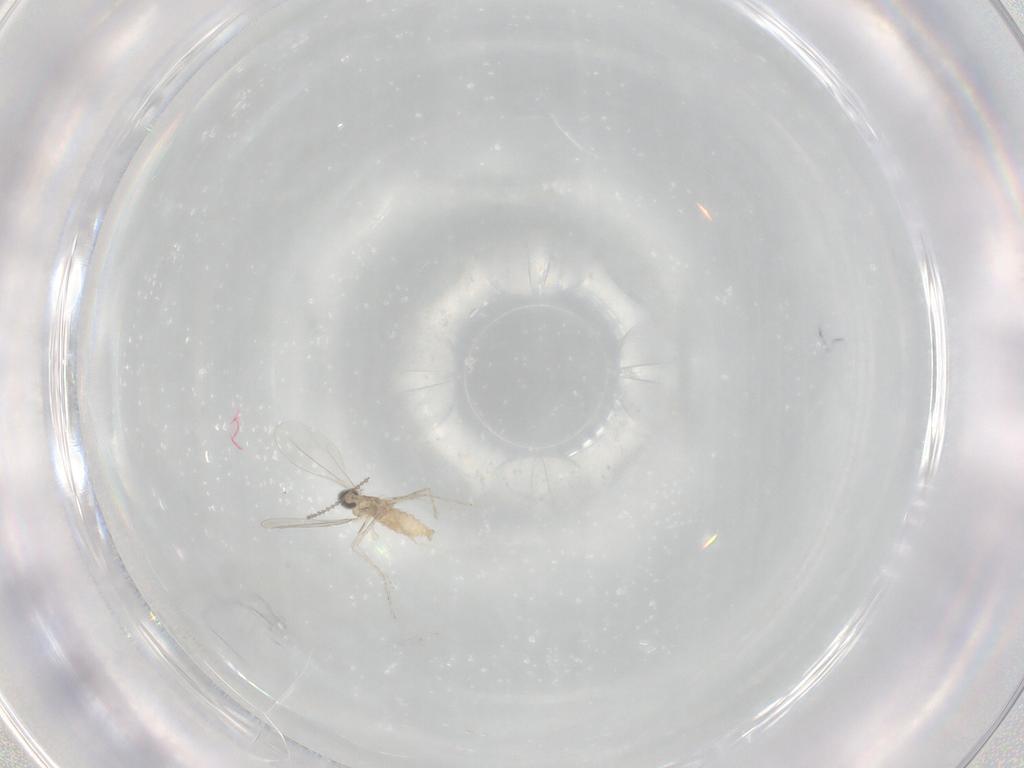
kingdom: Animalia
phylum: Arthropoda
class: Insecta
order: Diptera
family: Cecidomyiidae
